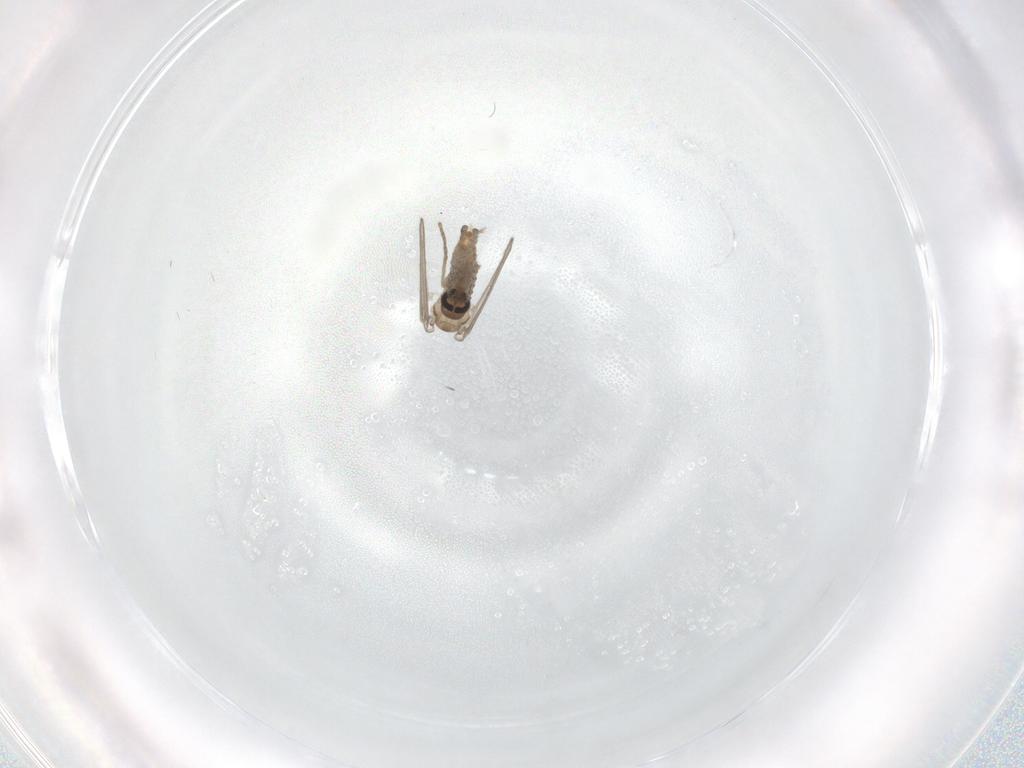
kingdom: Animalia
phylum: Arthropoda
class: Insecta
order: Diptera
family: Psychodidae
